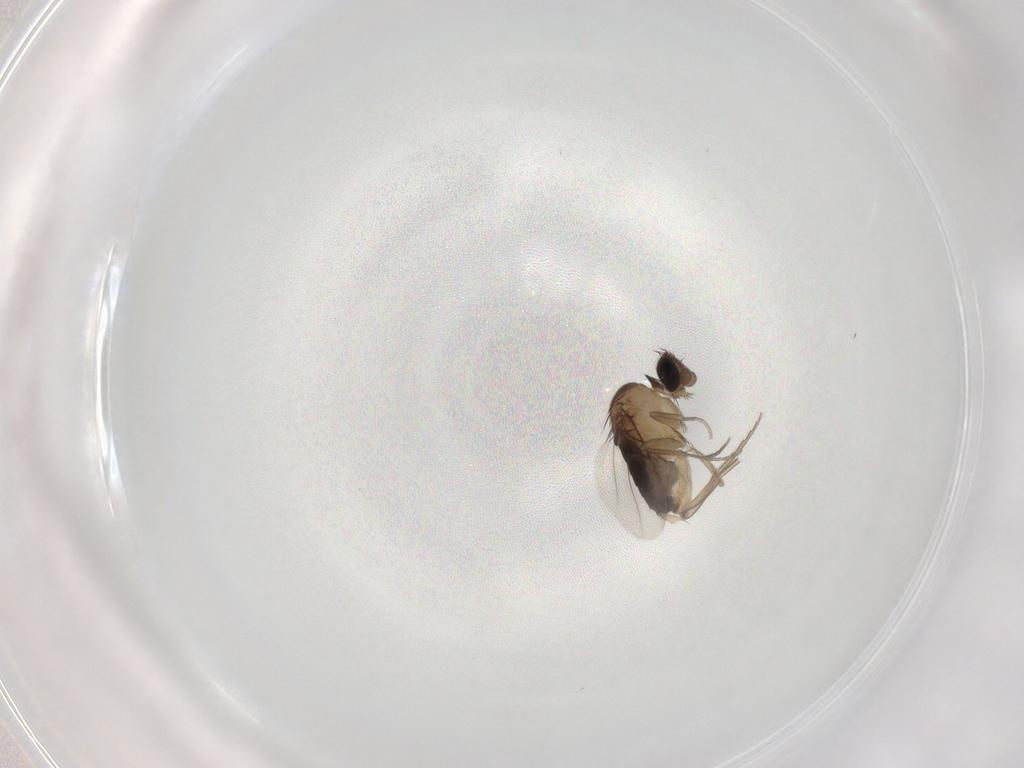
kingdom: Animalia
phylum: Arthropoda
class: Insecta
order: Diptera
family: Phoridae
